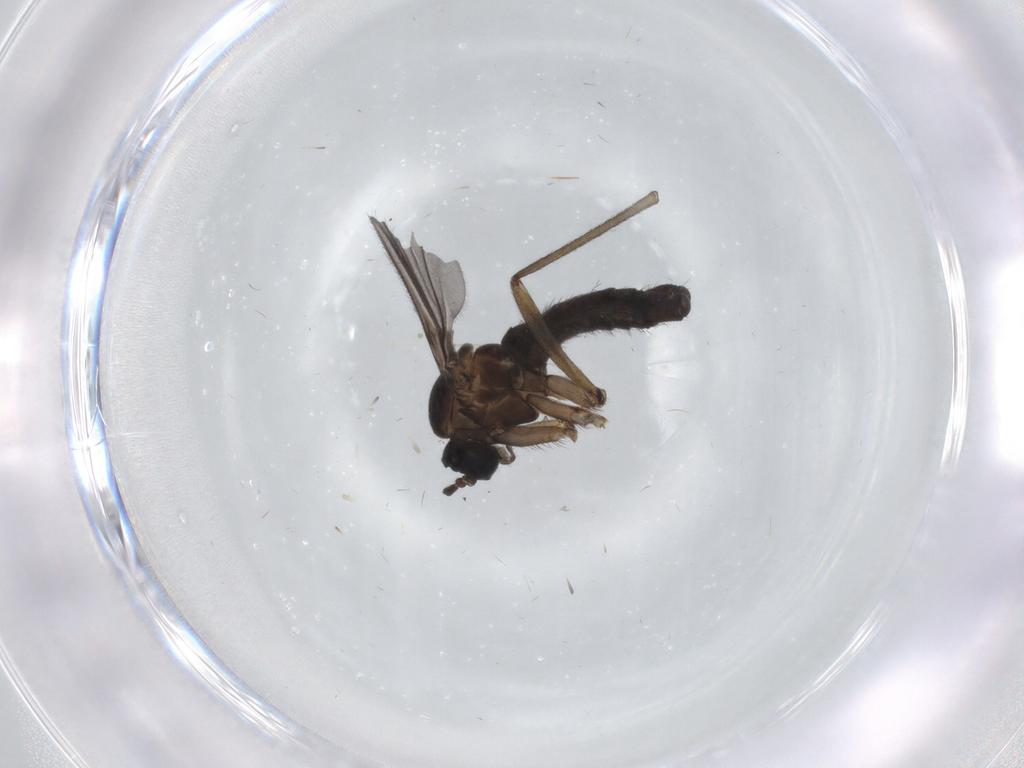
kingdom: Animalia
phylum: Arthropoda
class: Insecta
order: Diptera
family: Sciaridae
